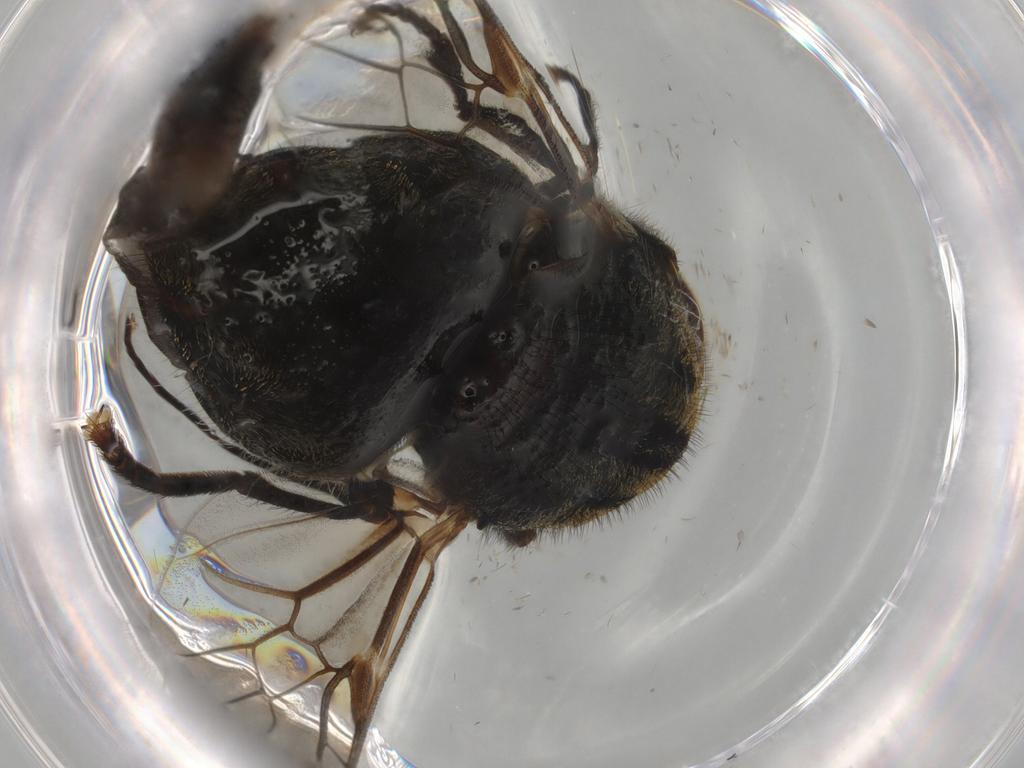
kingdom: Animalia
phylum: Arthropoda
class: Insecta
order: Diptera
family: Stratiomyidae
